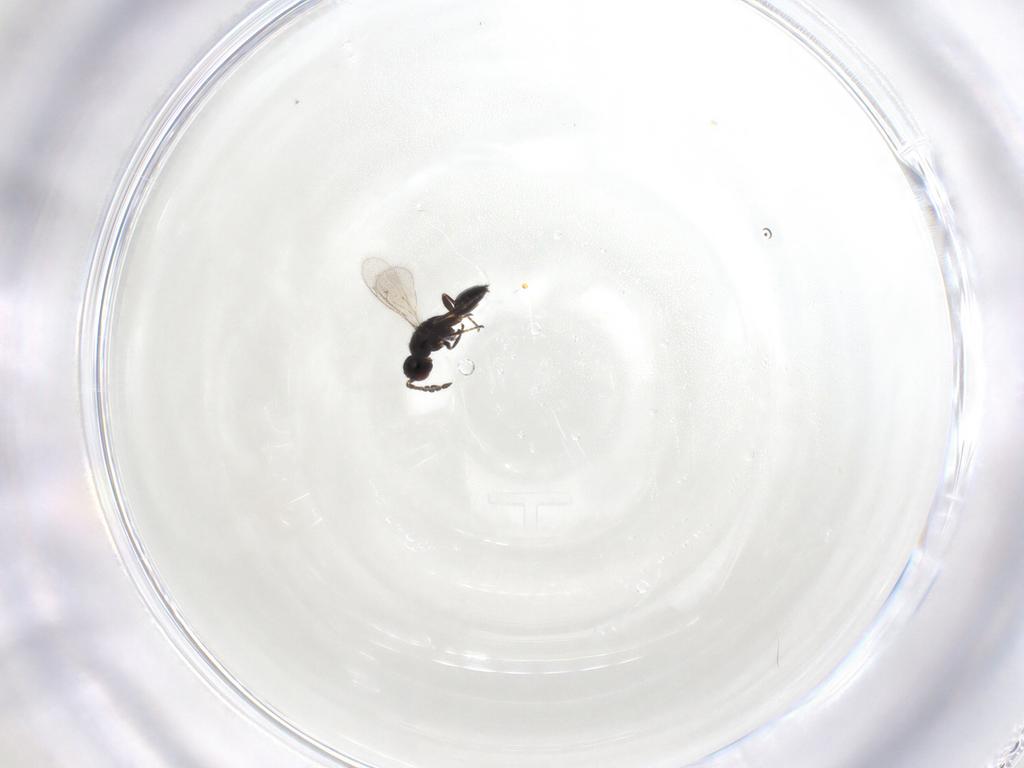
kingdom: Animalia
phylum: Arthropoda
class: Insecta
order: Hymenoptera
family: Eulophidae
